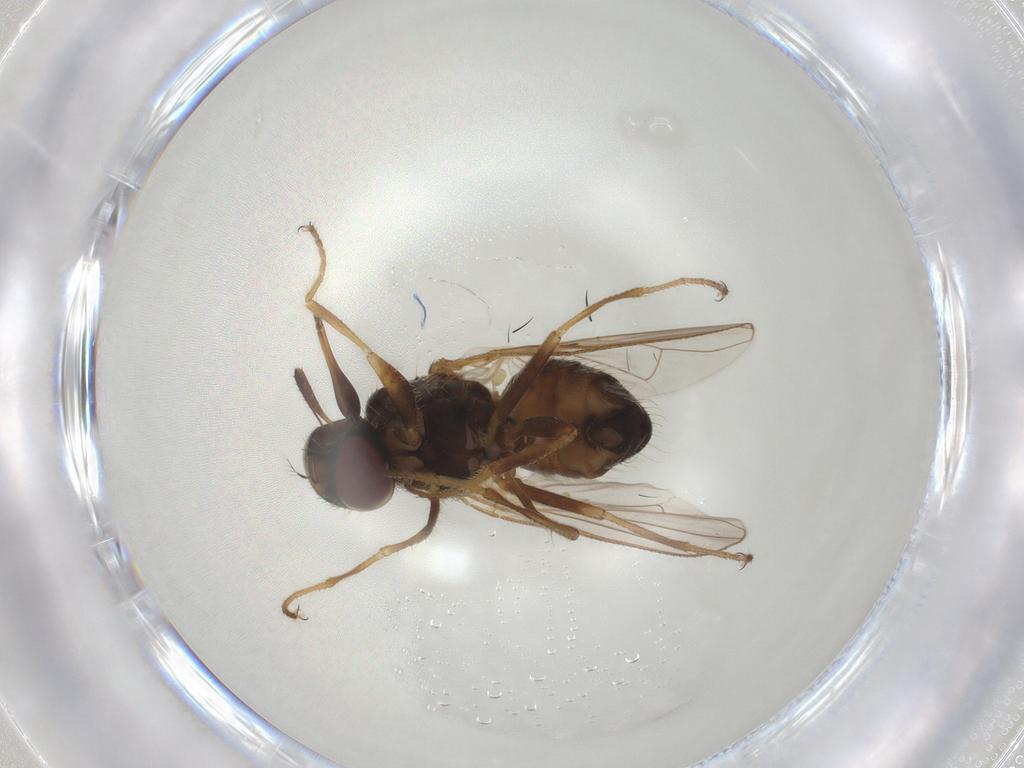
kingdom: Animalia
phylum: Arthropoda
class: Insecta
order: Diptera
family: Muscidae
